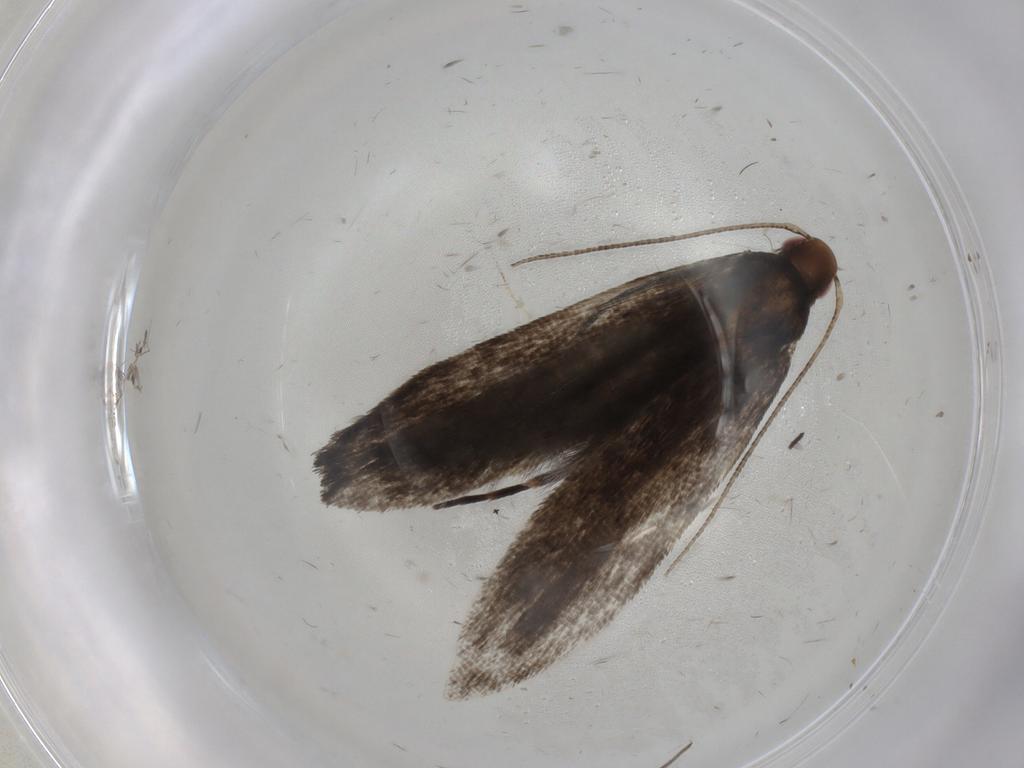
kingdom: Animalia
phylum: Arthropoda
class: Insecta
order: Lepidoptera
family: Gelechiidae
